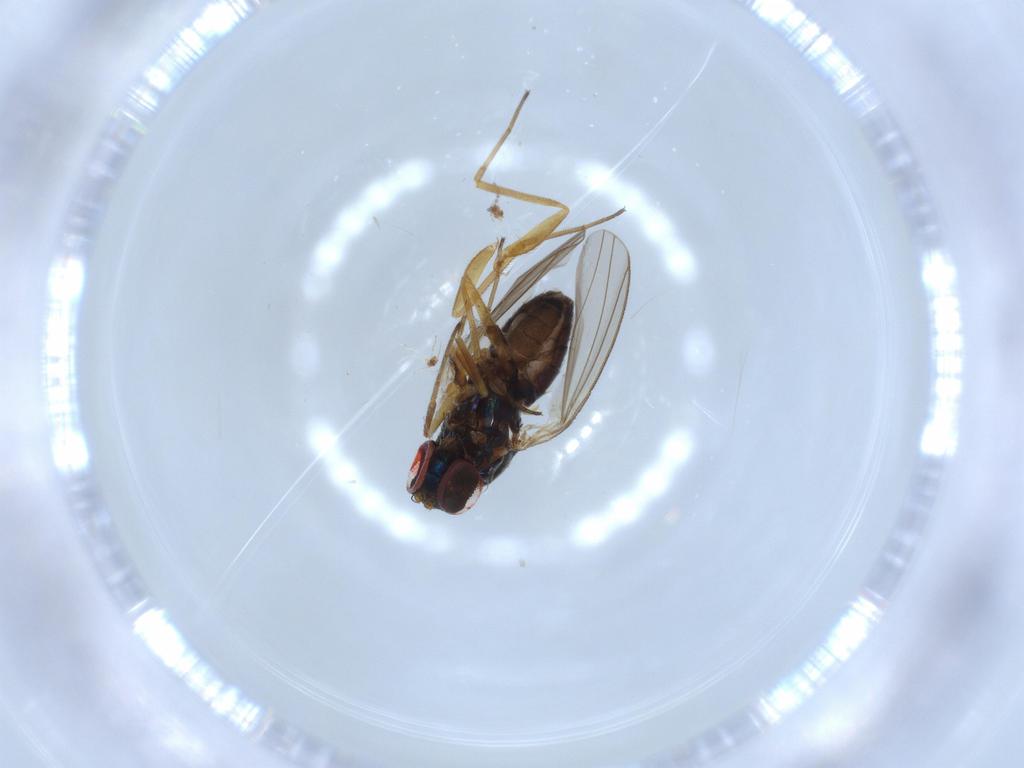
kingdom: Animalia
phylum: Arthropoda
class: Insecta
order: Diptera
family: Dolichopodidae
